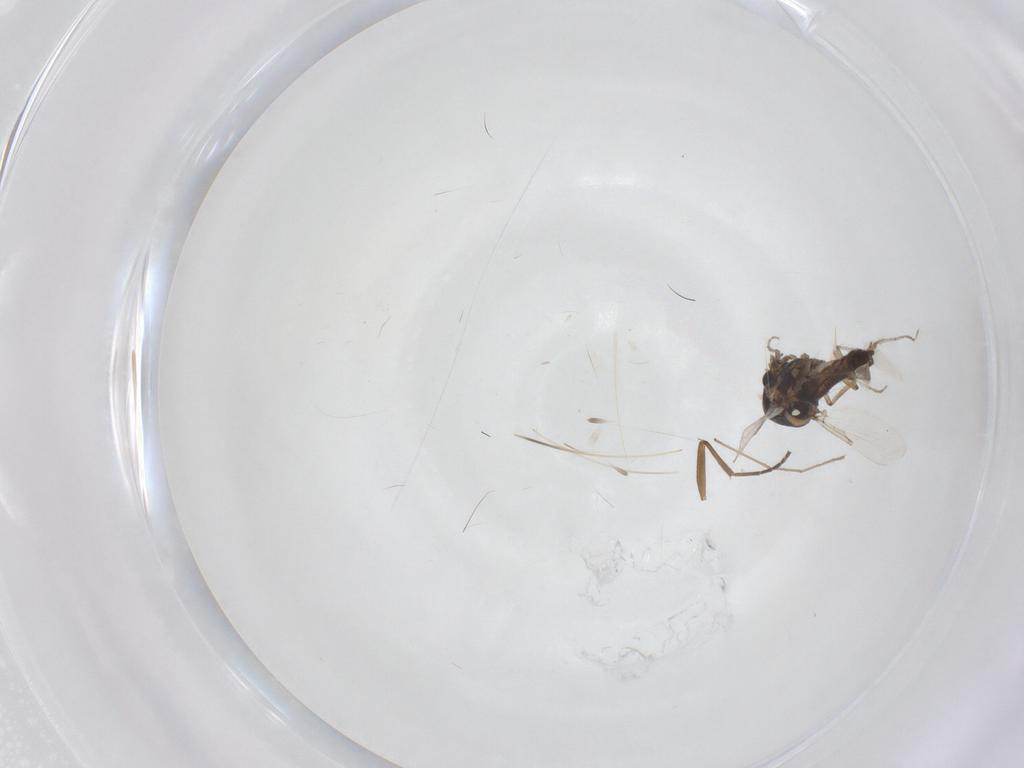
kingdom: Animalia
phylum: Arthropoda
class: Insecta
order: Diptera
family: Ceratopogonidae
